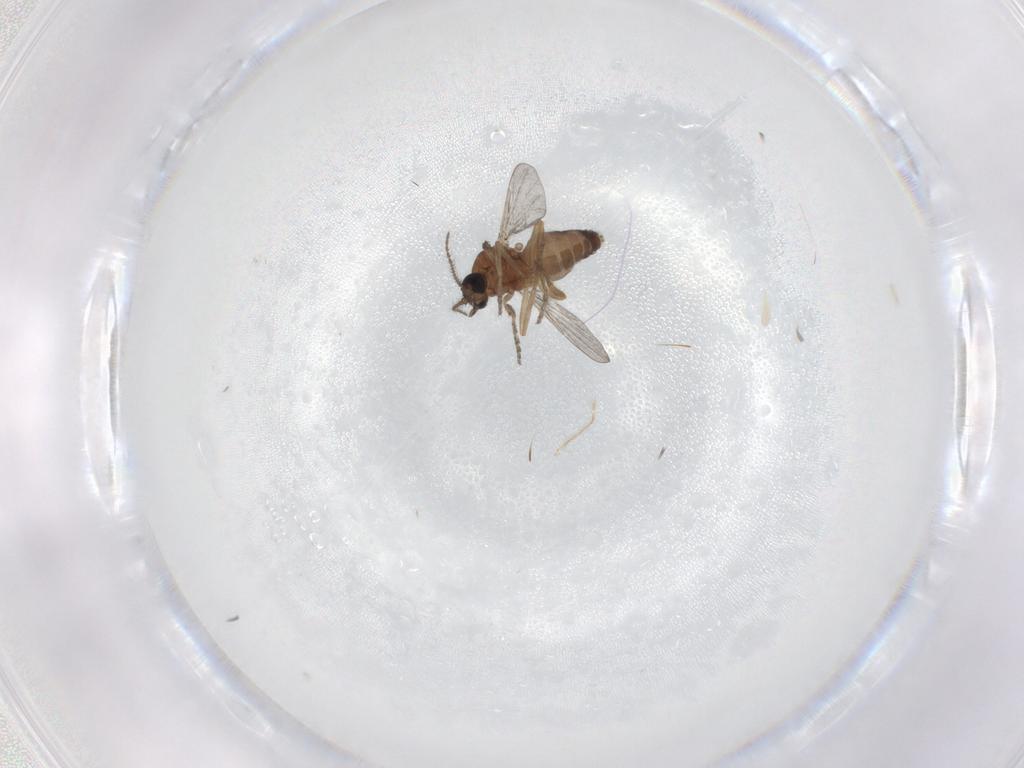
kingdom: Animalia
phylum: Arthropoda
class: Insecta
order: Diptera
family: Ceratopogonidae
